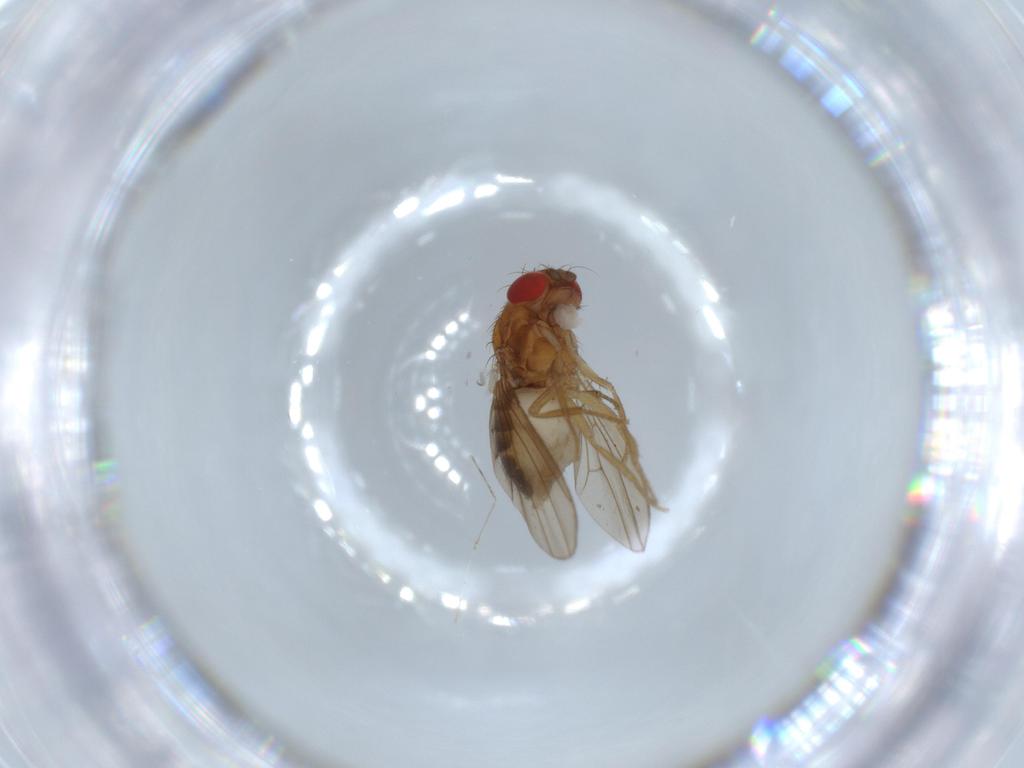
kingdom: Animalia
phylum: Arthropoda
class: Insecta
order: Diptera
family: Drosophilidae
